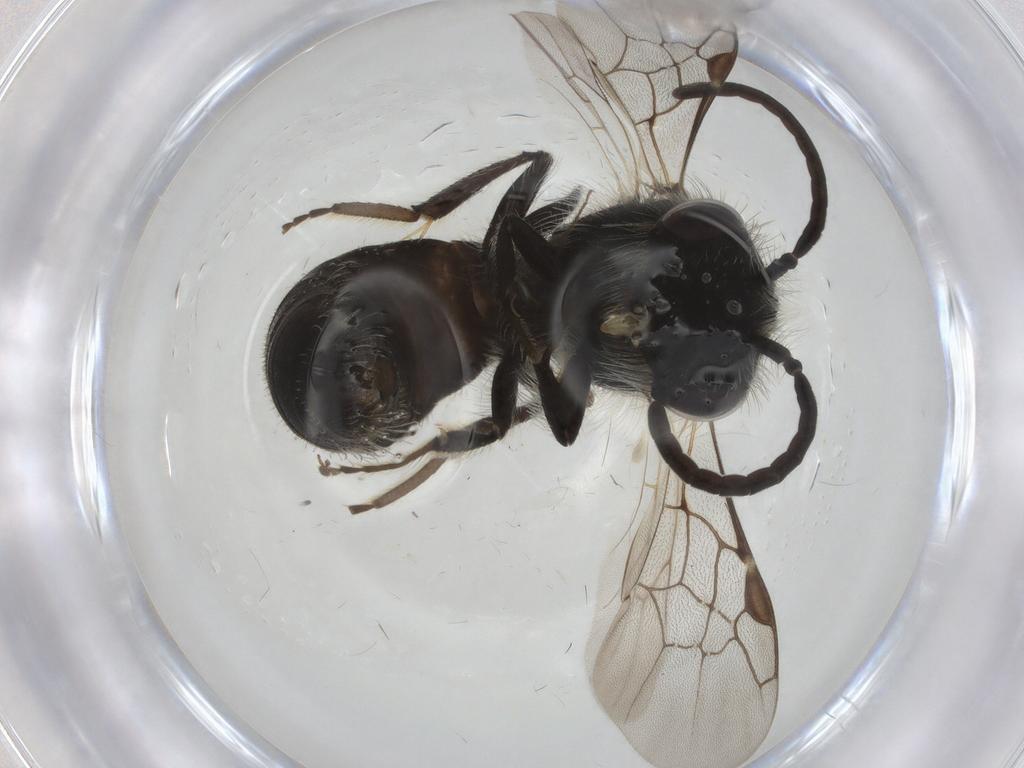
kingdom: Animalia
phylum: Arthropoda
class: Insecta
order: Hymenoptera
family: Andrenidae
